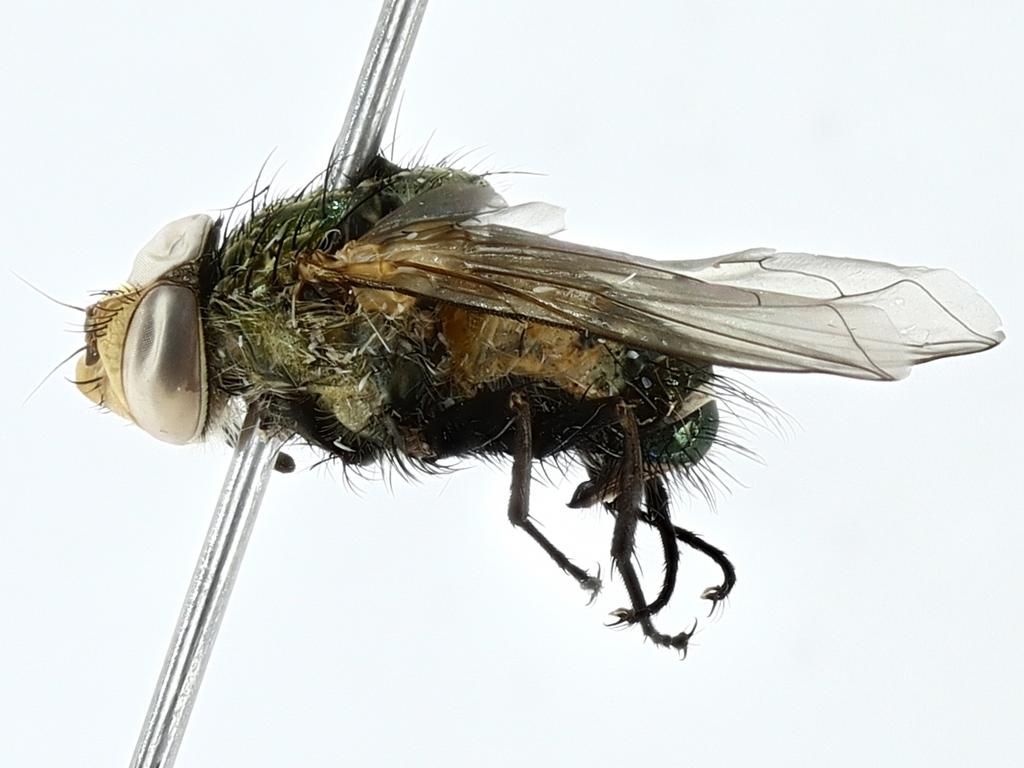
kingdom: Animalia
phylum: Arthropoda
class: Insecta
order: Diptera
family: Calliphoridae
